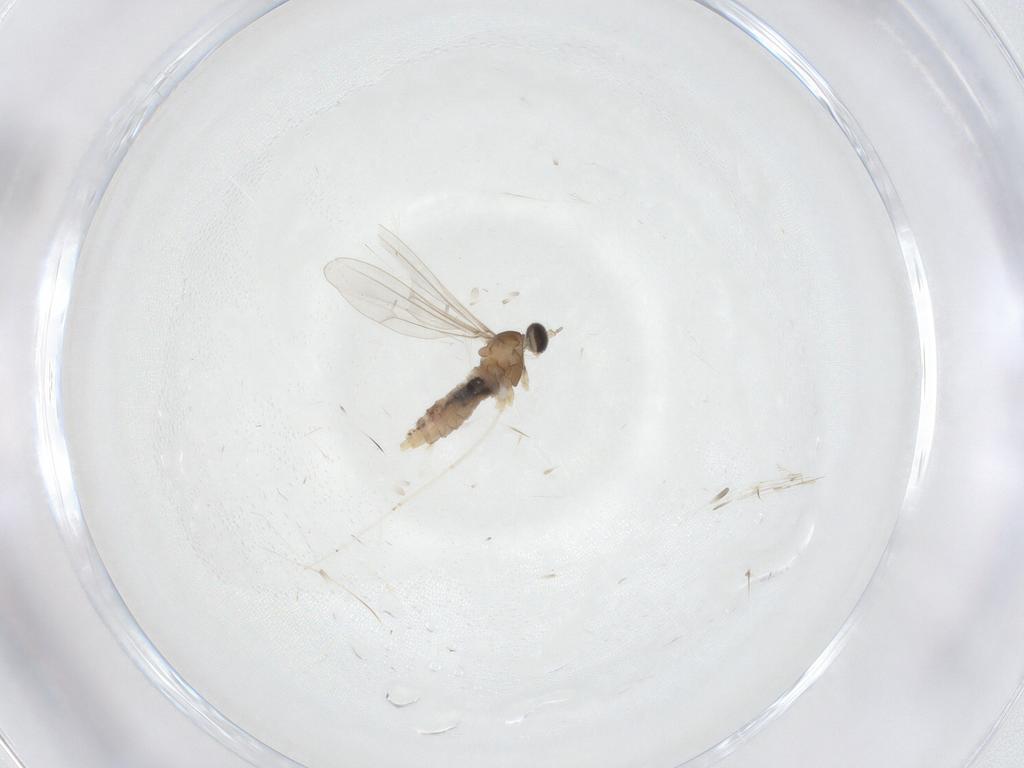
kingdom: Animalia
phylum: Arthropoda
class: Insecta
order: Diptera
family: Cecidomyiidae
